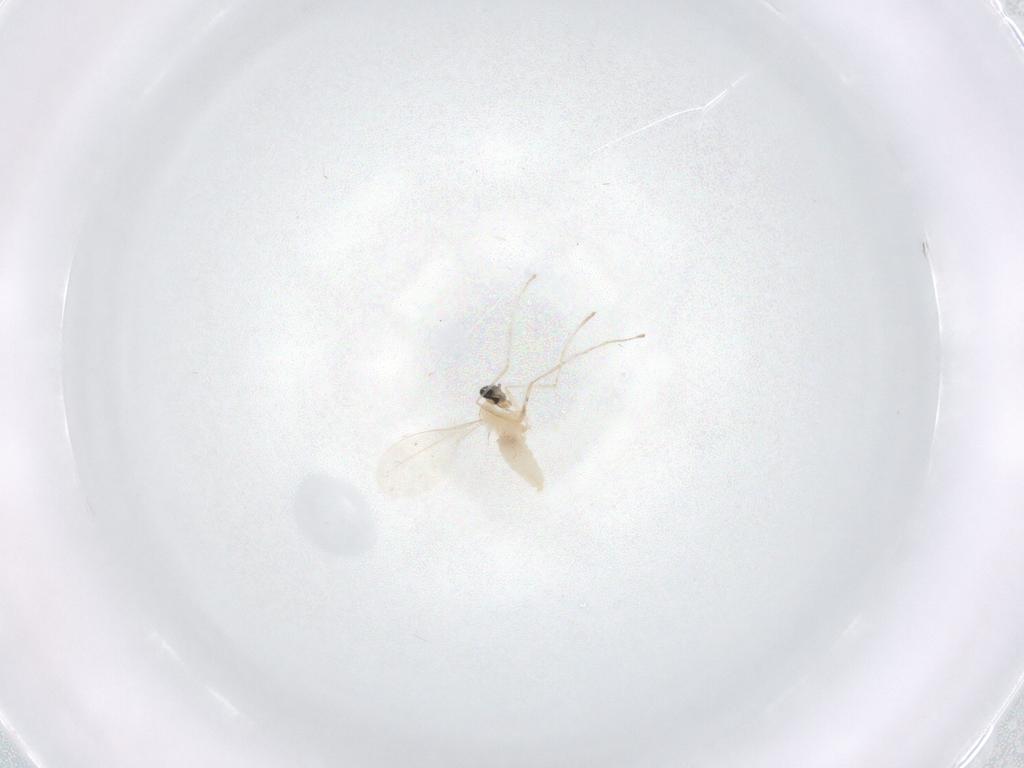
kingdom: Animalia
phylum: Arthropoda
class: Insecta
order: Diptera
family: Cecidomyiidae
